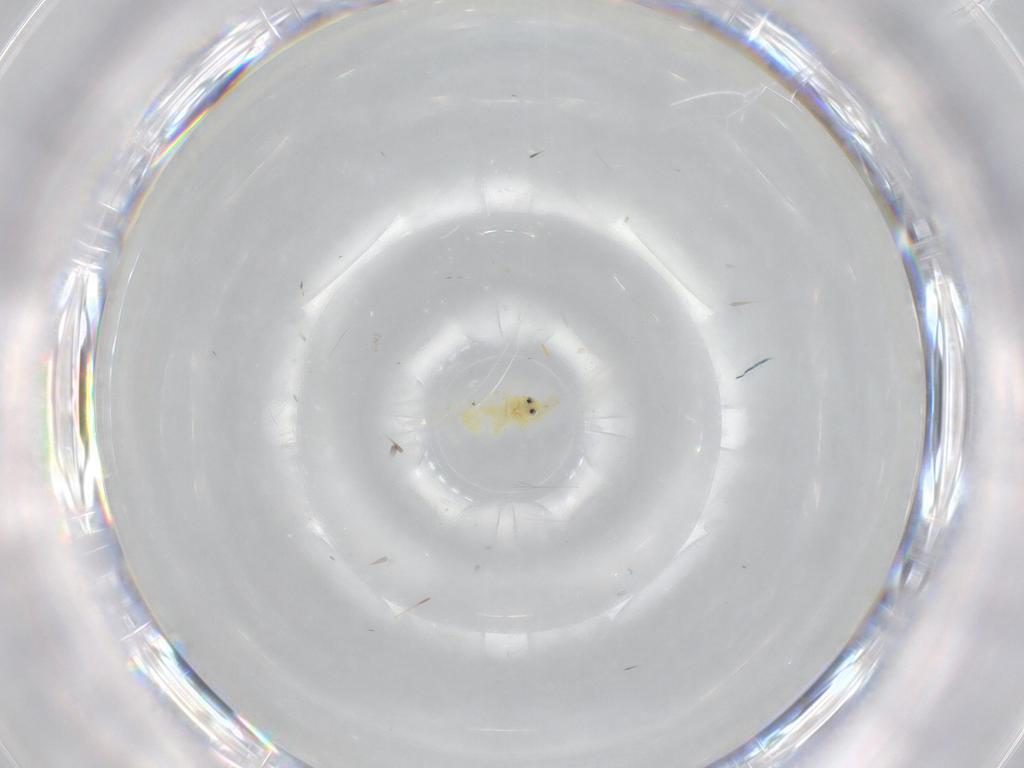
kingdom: Animalia
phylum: Arthropoda
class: Insecta
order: Hemiptera
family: Aleyrodidae
